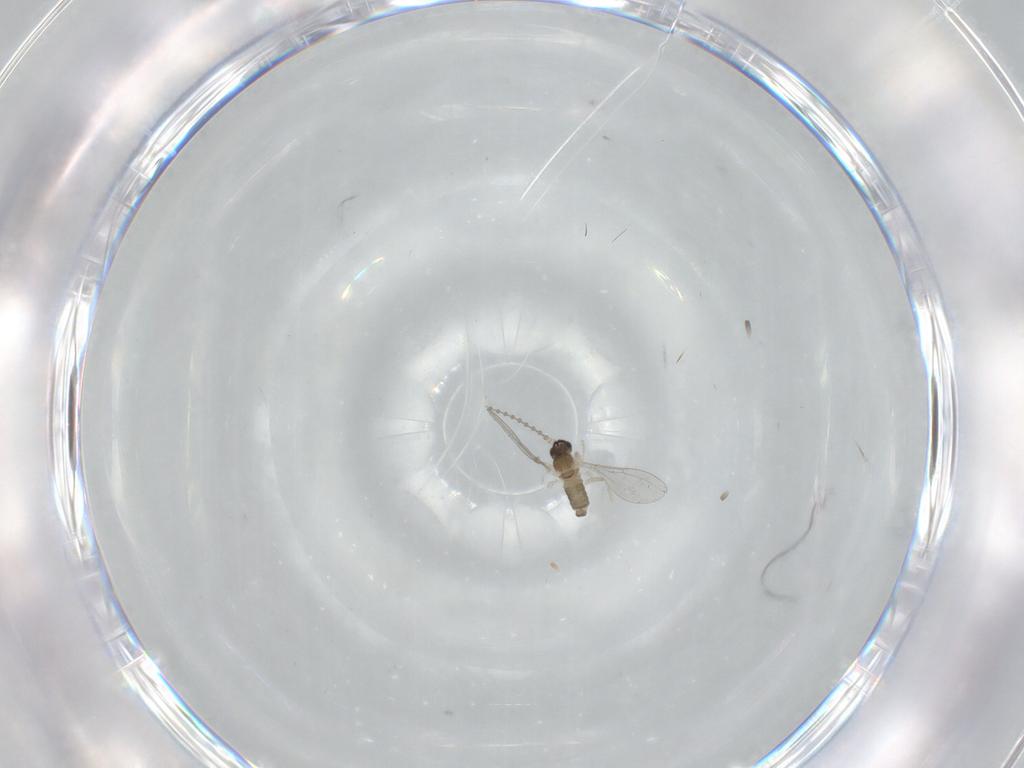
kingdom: Animalia
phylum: Arthropoda
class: Insecta
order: Diptera
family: Cecidomyiidae
